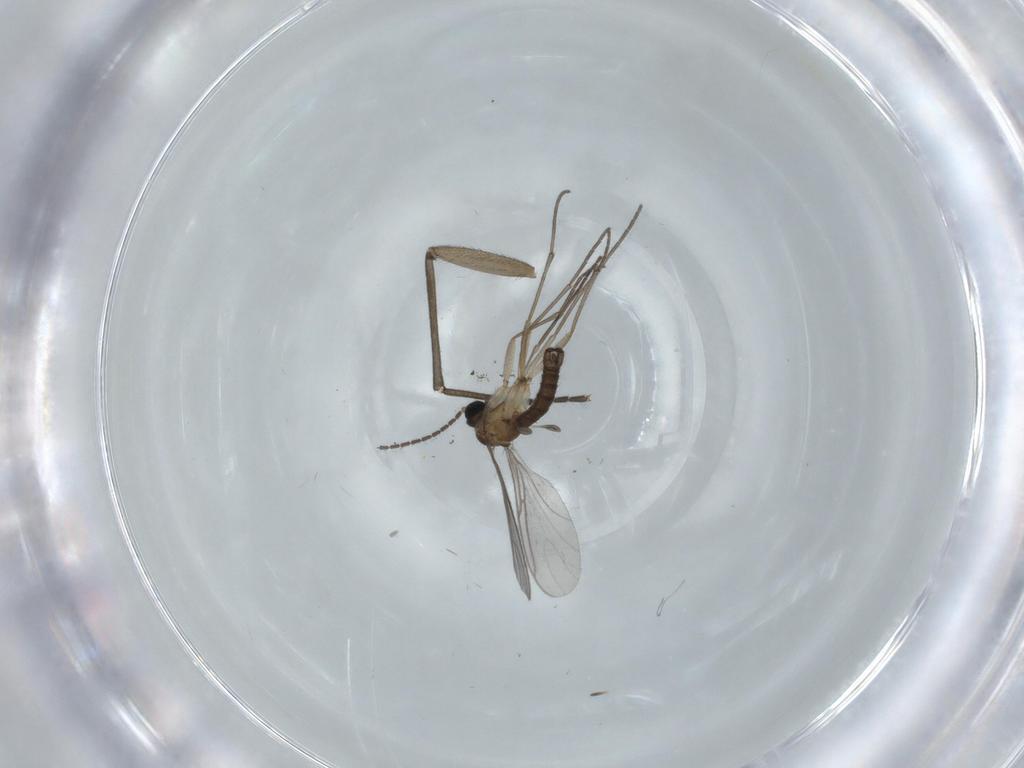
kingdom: Animalia
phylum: Arthropoda
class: Insecta
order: Diptera
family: Sciaridae
